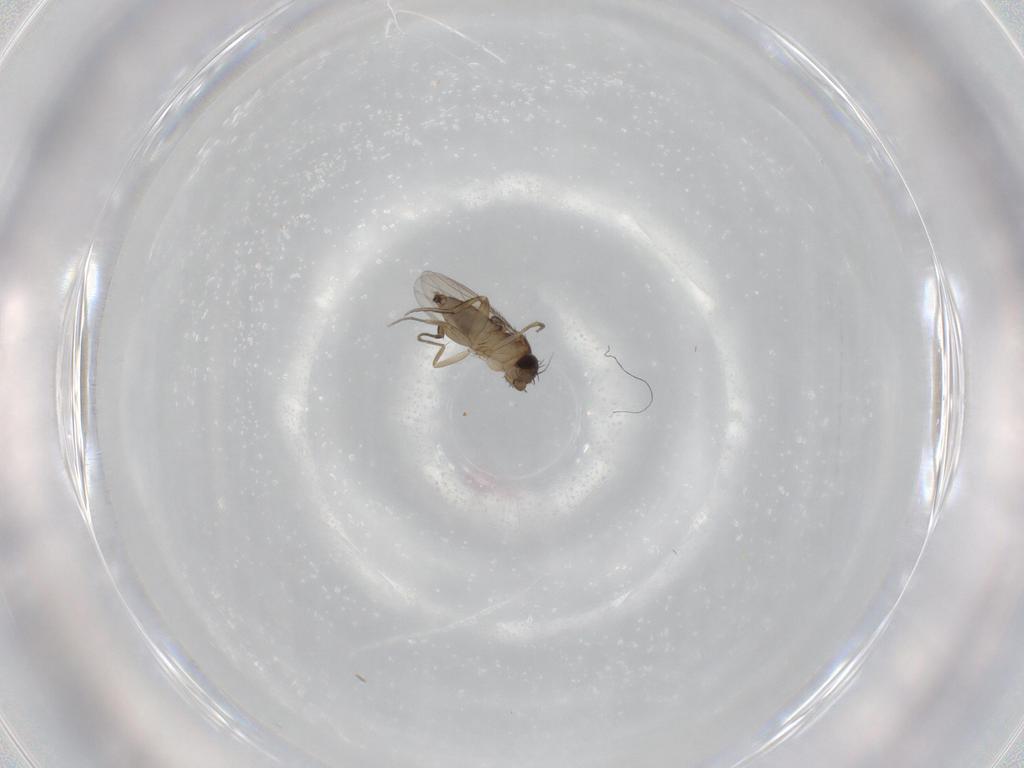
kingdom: Animalia
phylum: Arthropoda
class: Insecta
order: Diptera
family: Phoridae
